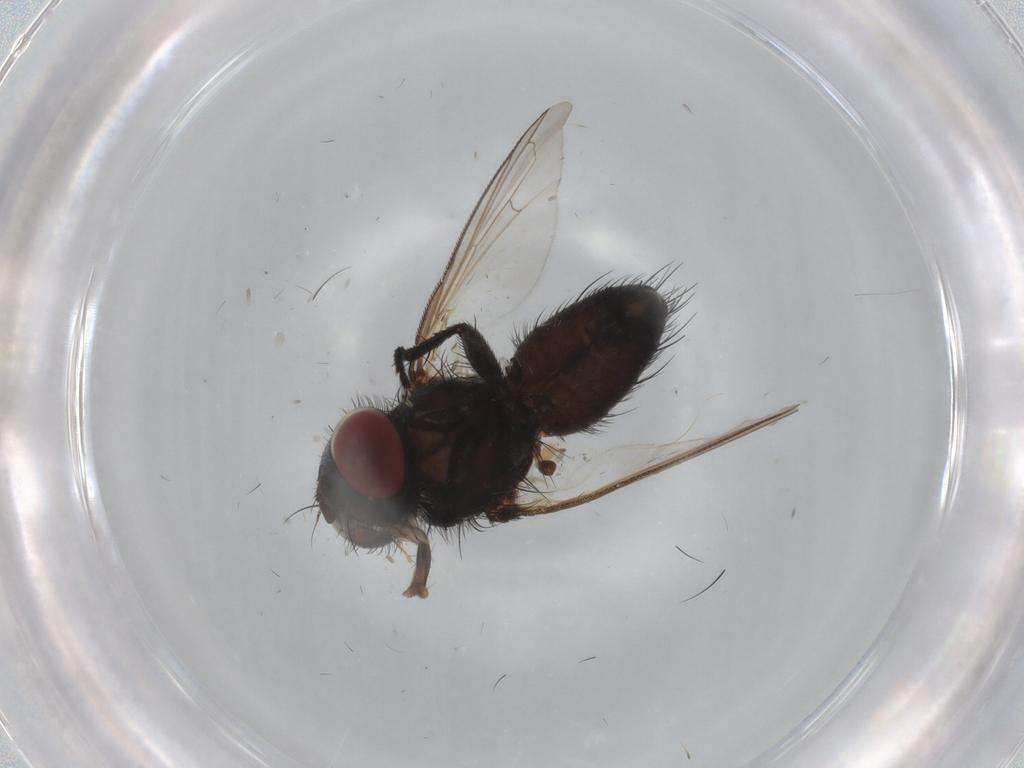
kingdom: Animalia
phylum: Arthropoda
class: Insecta
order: Diptera
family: Tachinidae
